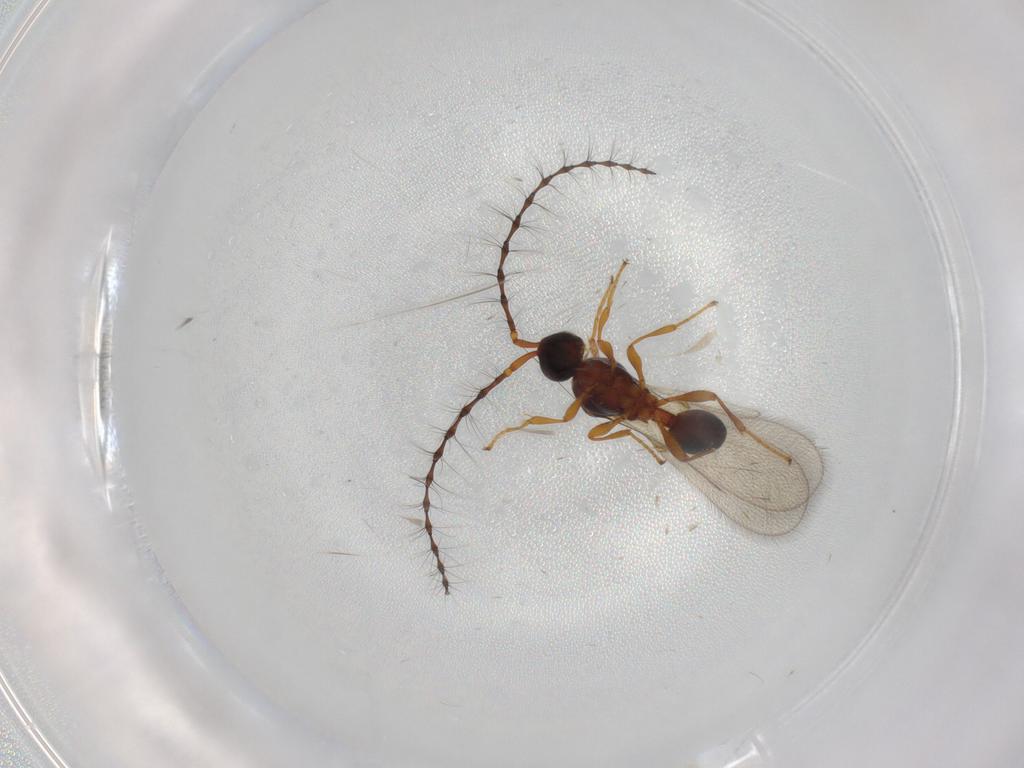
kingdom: Animalia
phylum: Arthropoda
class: Insecta
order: Hymenoptera
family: Diapriidae
